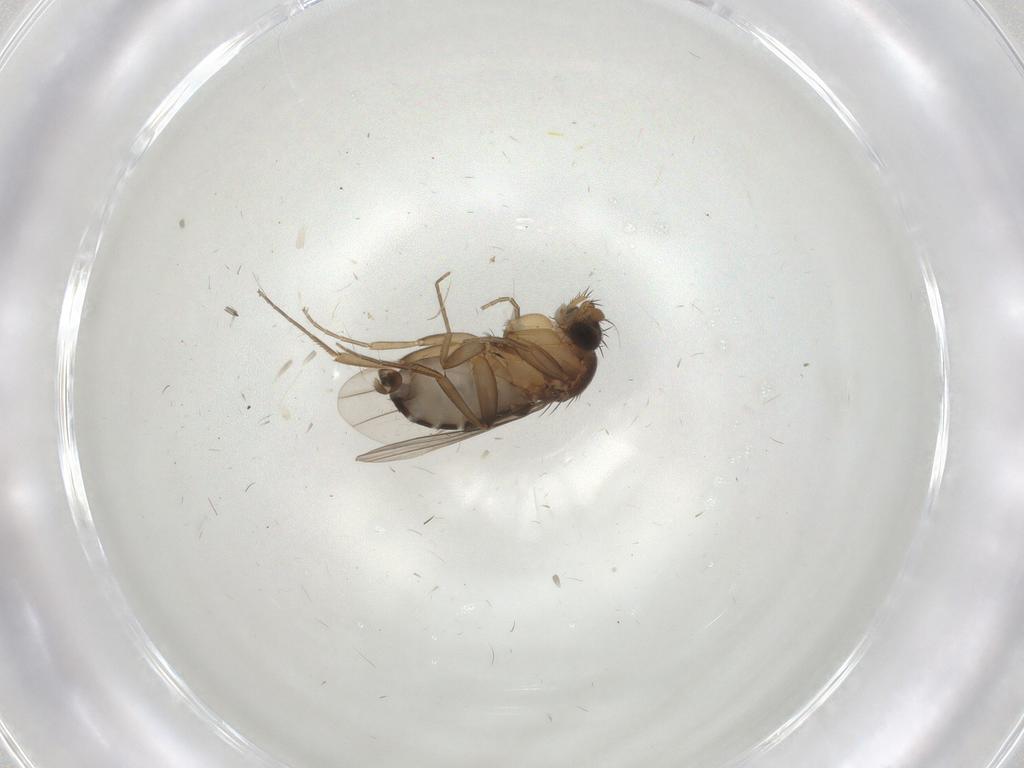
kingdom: Animalia
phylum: Arthropoda
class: Insecta
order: Diptera
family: Phoridae
